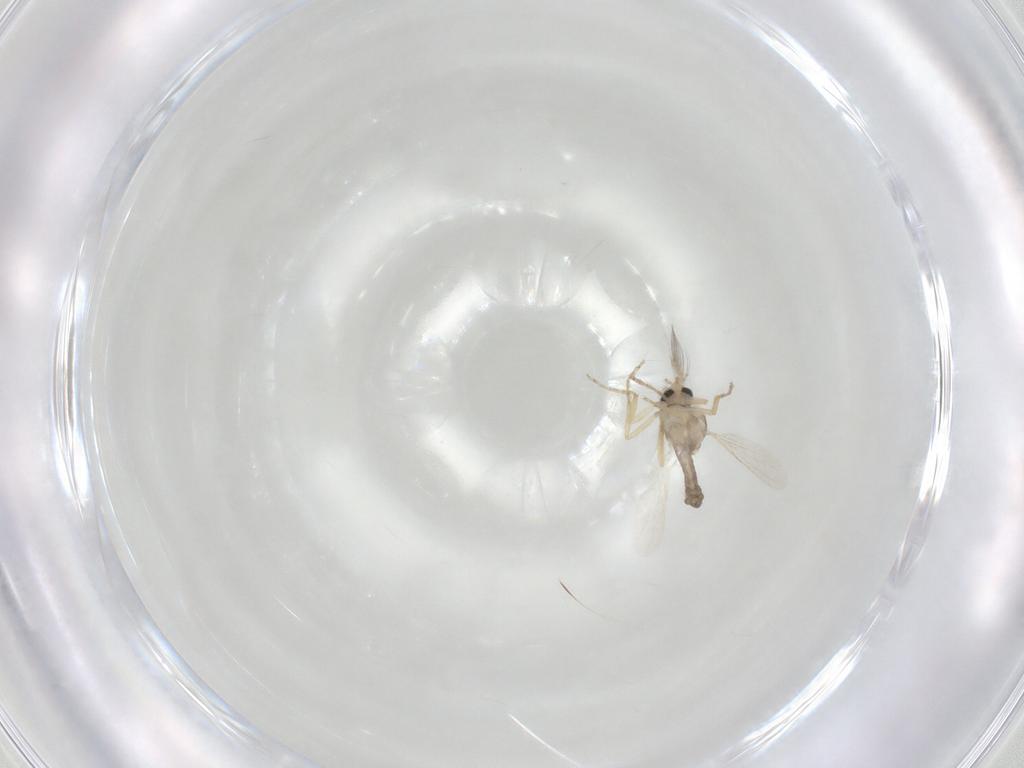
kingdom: Animalia
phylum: Arthropoda
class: Insecta
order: Diptera
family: Ceratopogonidae
